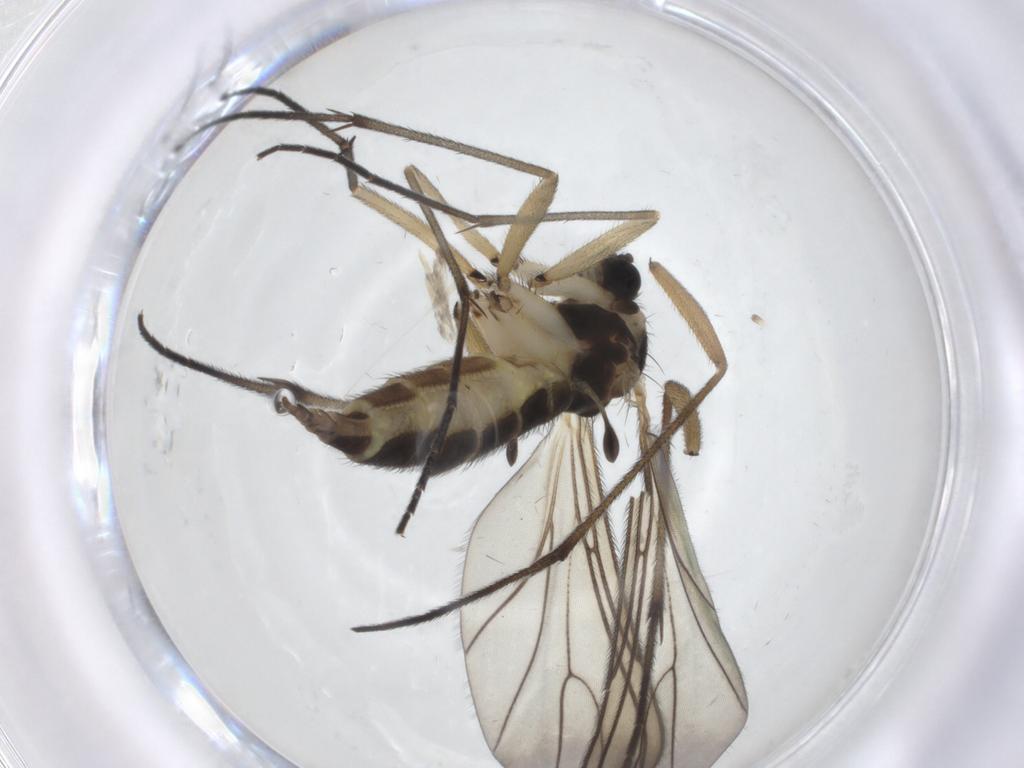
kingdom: Animalia
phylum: Arthropoda
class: Insecta
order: Diptera
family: Sciaridae
